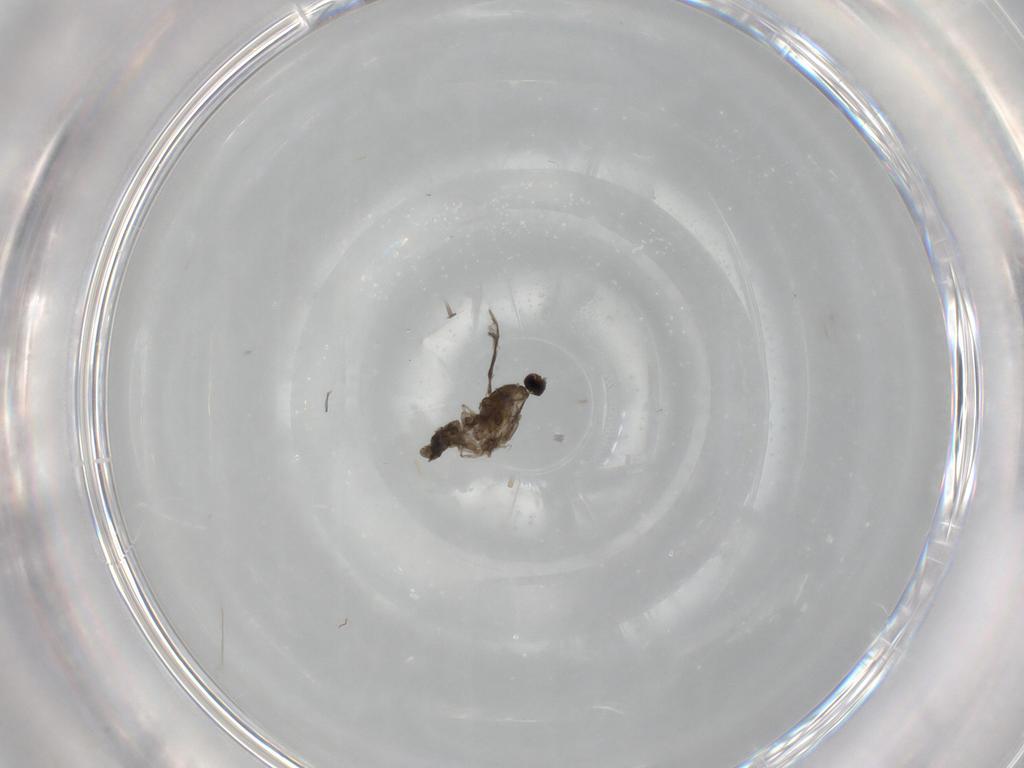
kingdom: Animalia
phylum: Arthropoda
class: Insecta
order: Diptera
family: Cecidomyiidae
